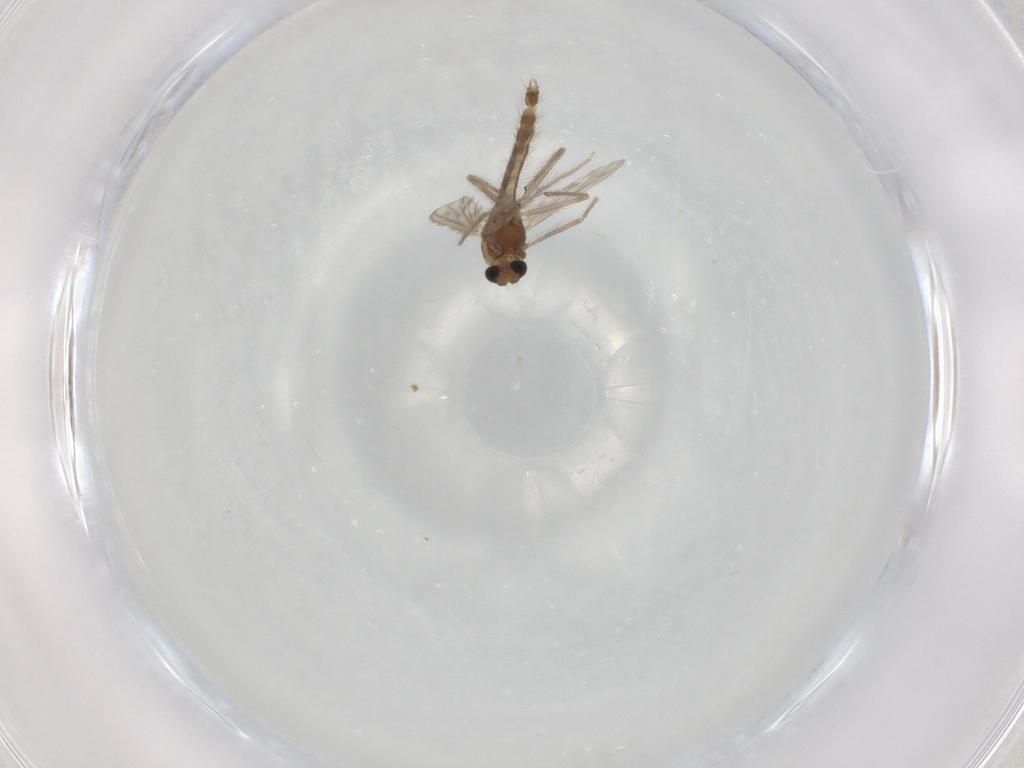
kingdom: Animalia
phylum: Arthropoda
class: Insecta
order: Diptera
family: Chironomidae
